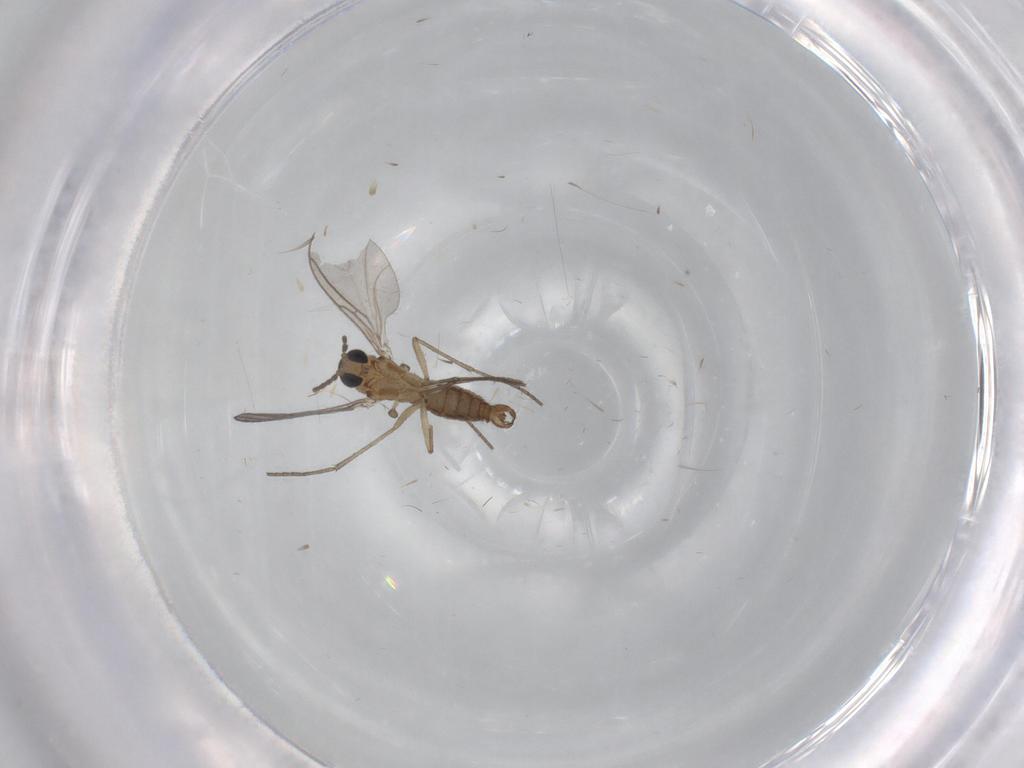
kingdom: Animalia
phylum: Arthropoda
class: Insecta
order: Diptera
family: Sciaridae
